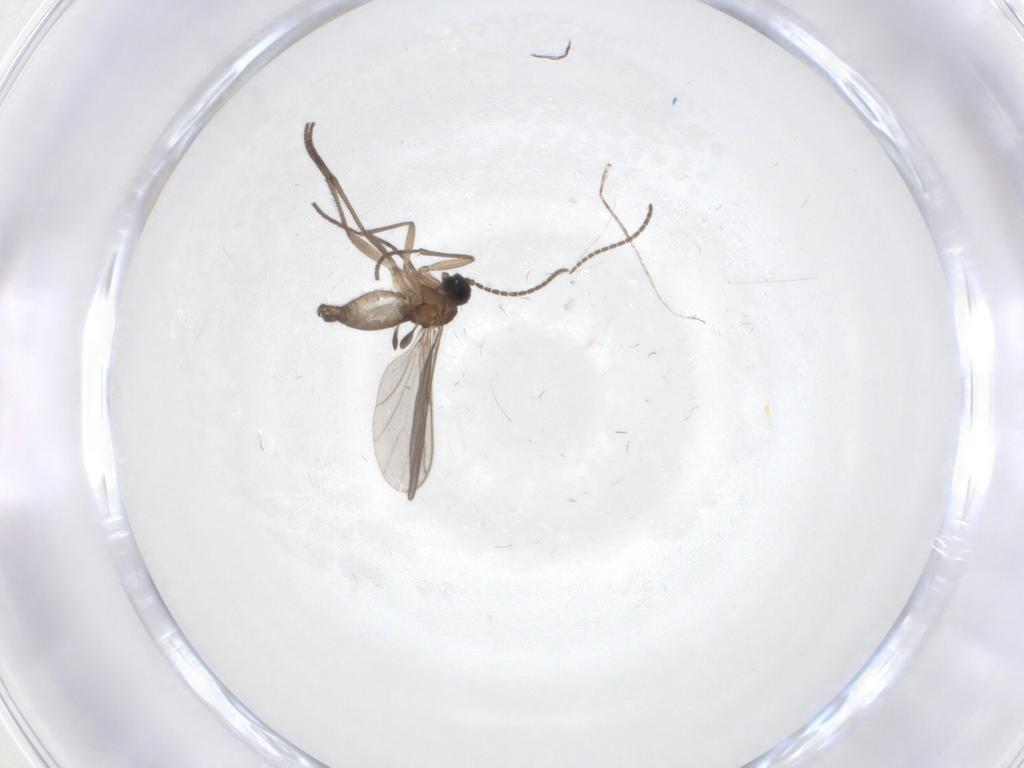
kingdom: Animalia
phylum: Arthropoda
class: Insecta
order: Diptera
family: Sciaridae
